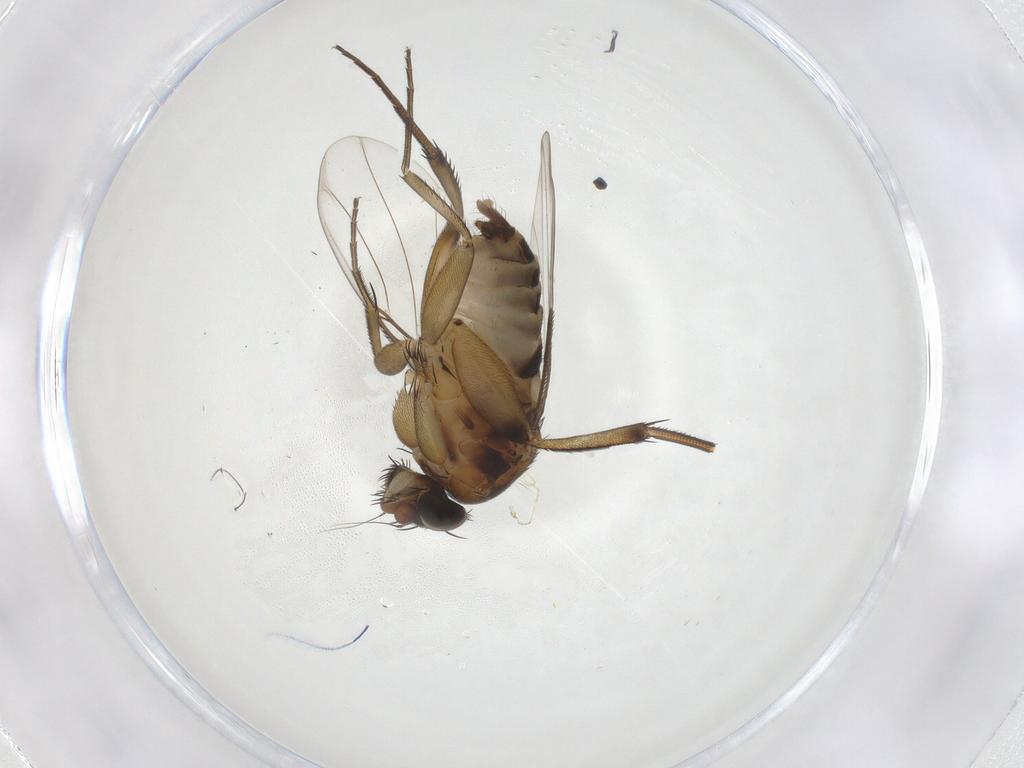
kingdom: Animalia
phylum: Arthropoda
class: Insecta
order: Diptera
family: Phoridae
